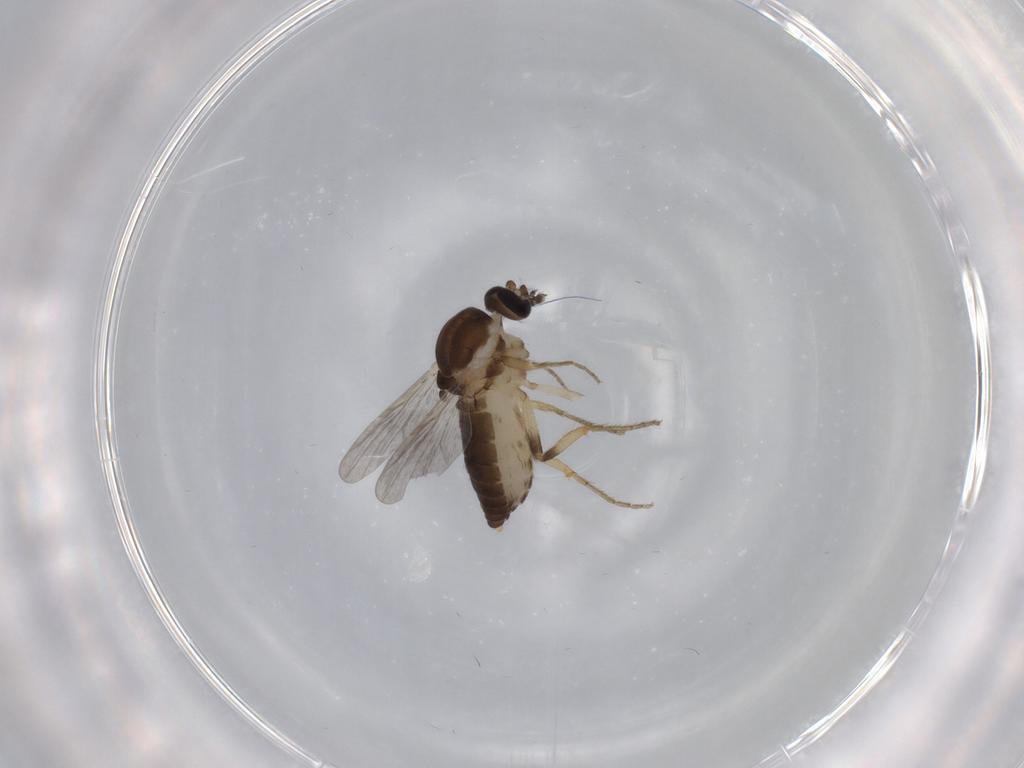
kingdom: Animalia
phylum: Arthropoda
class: Insecta
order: Diptera
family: Ceratopogonidae
